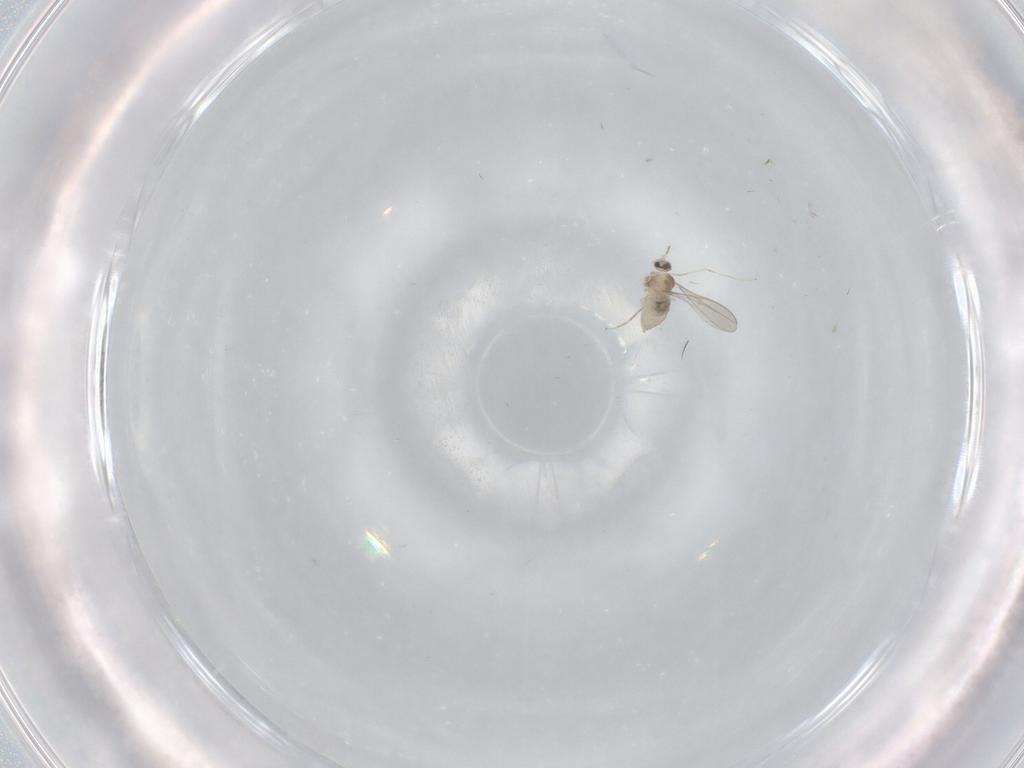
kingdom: Animalia
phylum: Arthropoda
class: Insecta
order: Diptera
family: Cecidomyiidae
